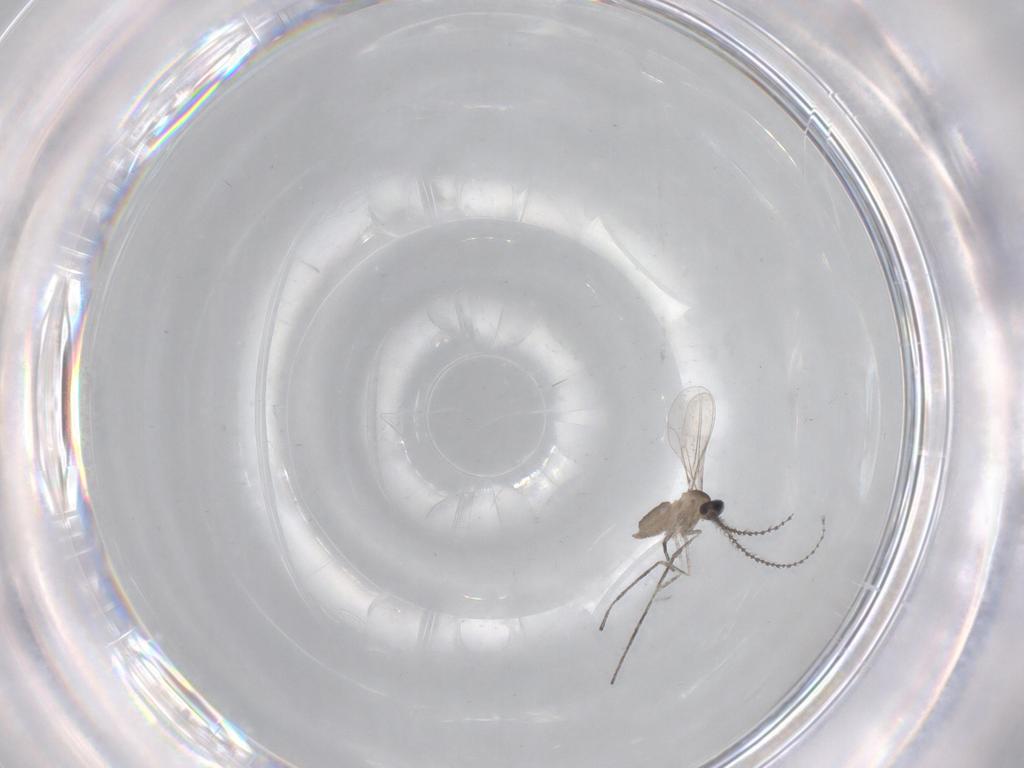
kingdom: Animalia
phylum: Arthropoda
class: Insecta
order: Diptera
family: Cecidomyiidae
